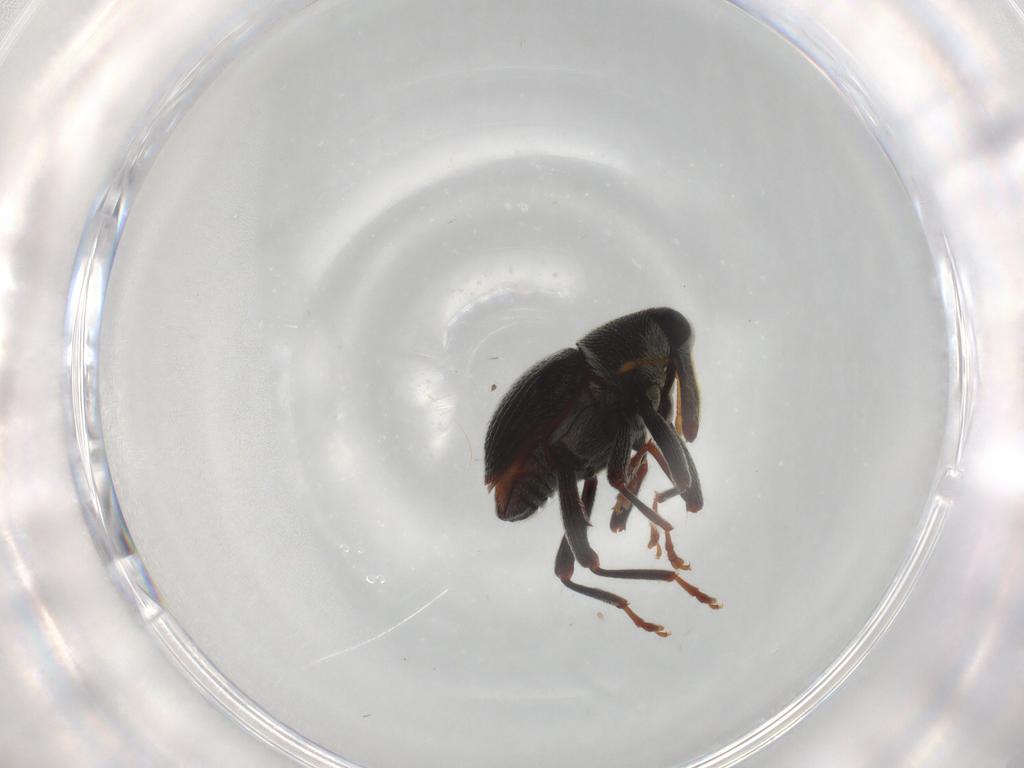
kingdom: Animalia
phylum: Arthropoda
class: Insecta
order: Coleoptera
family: Curculionidae
